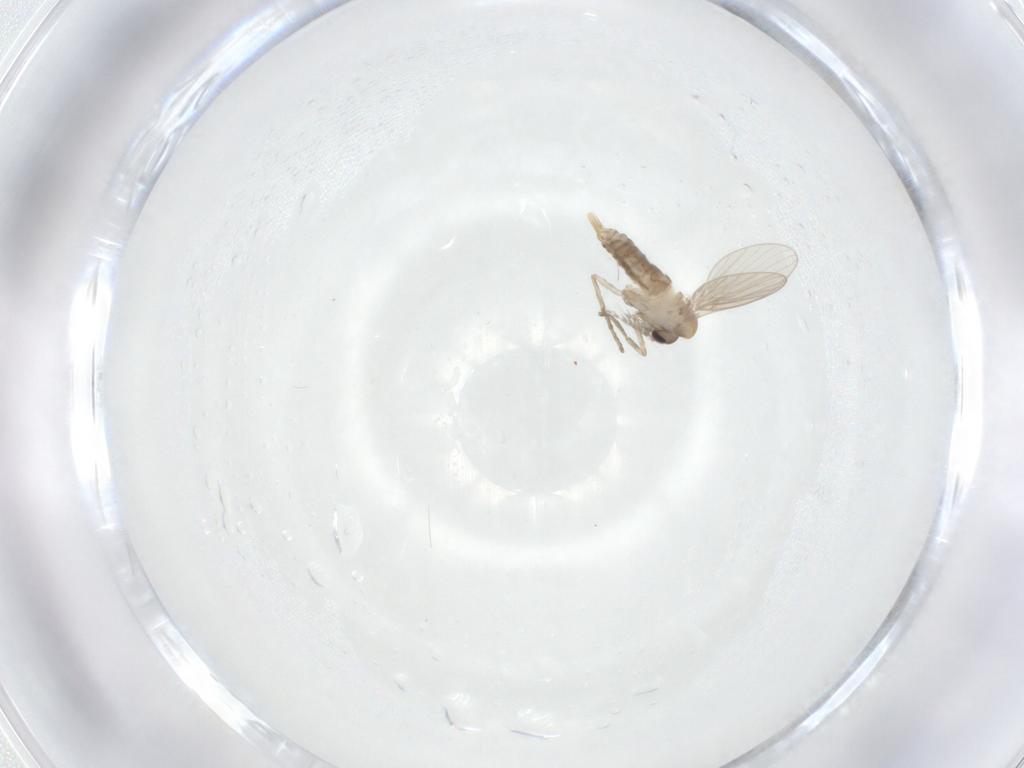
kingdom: Animalia
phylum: Arthropoda
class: Insecta
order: Diptera
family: Psychodidae
